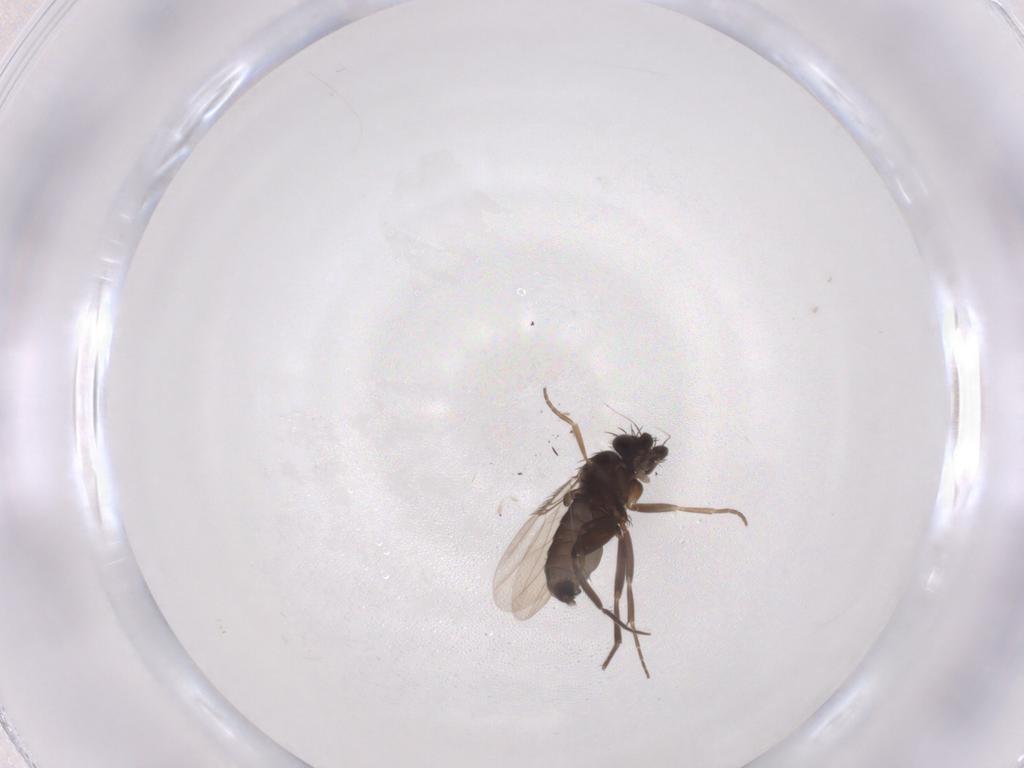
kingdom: Animalia
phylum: Arthropoda
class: Insecta
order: Diptera
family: Phoridae
